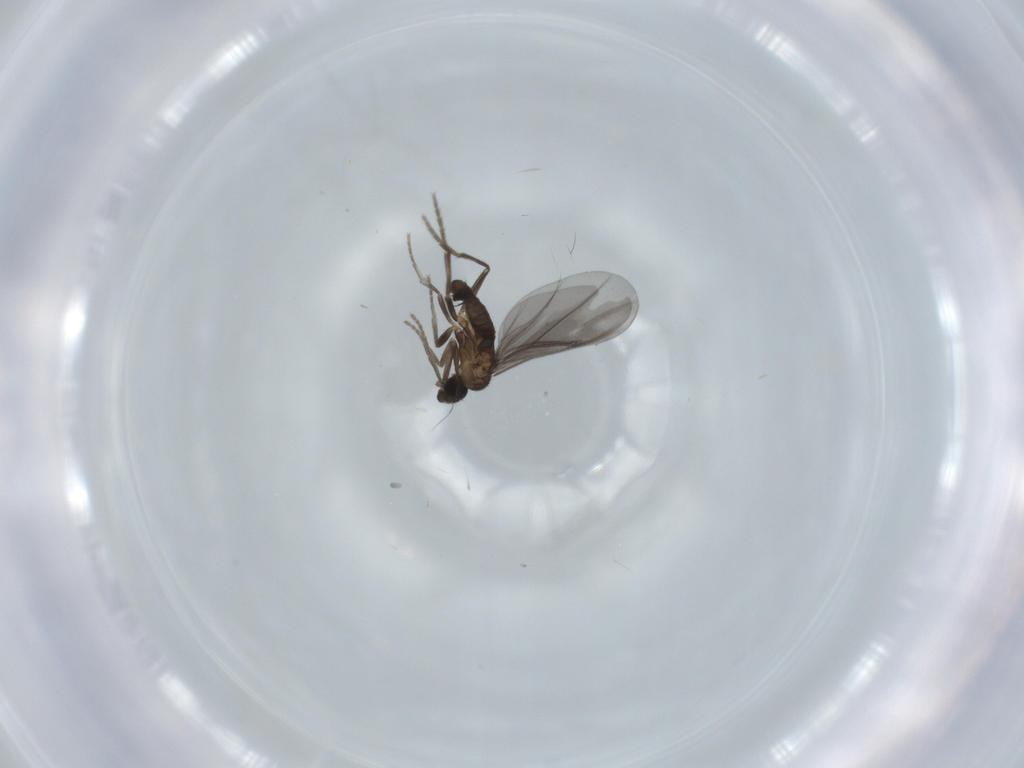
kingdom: Animalia
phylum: Arthropoda
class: Insecta
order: Diptera
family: Phoridae
